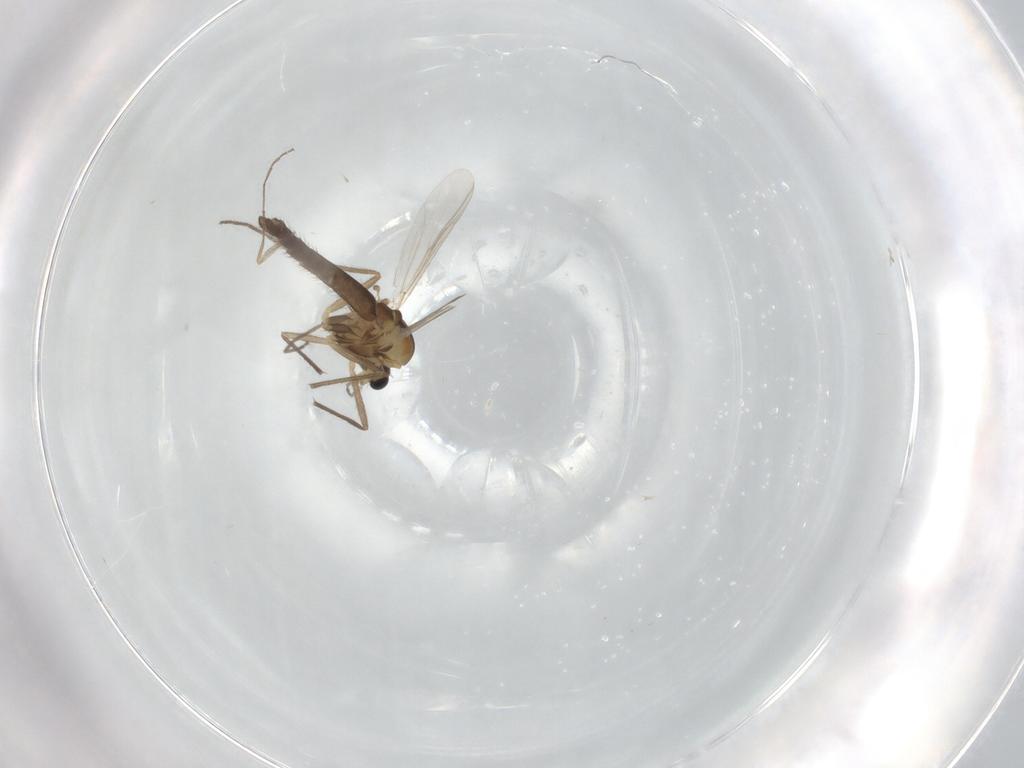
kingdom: Animalia
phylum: Arthropoda
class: Insecta
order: Diptera
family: Chironomidae
